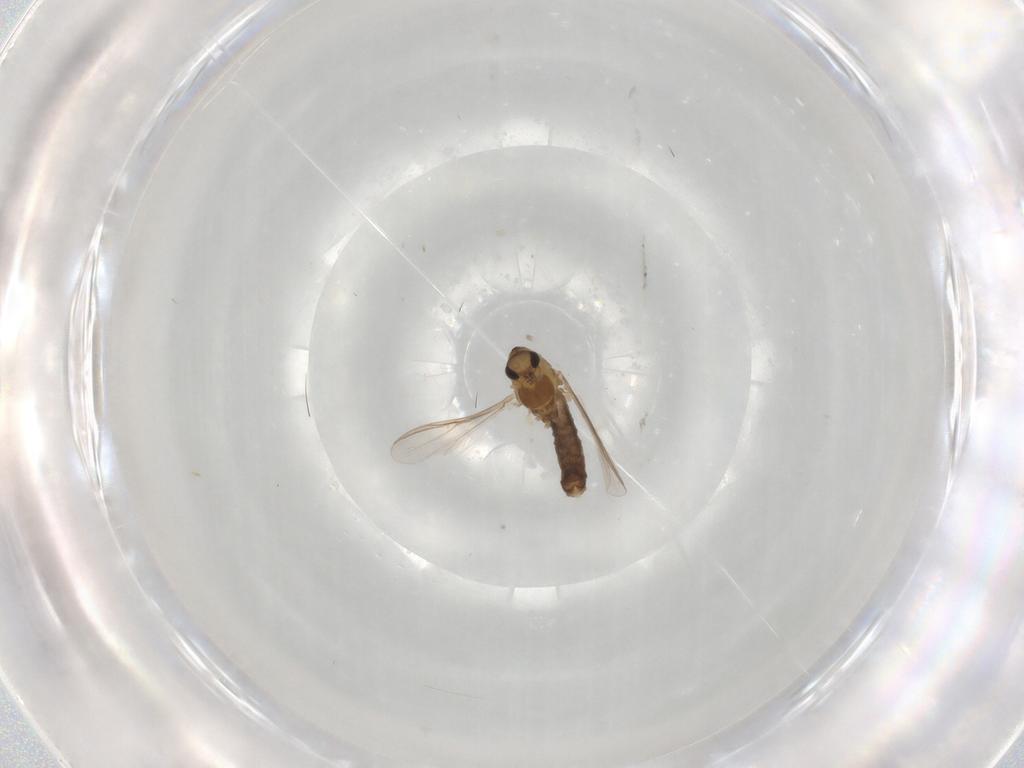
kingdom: Animalia
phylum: Arthropoda
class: Insecta
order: Diptera
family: Chironomidae
